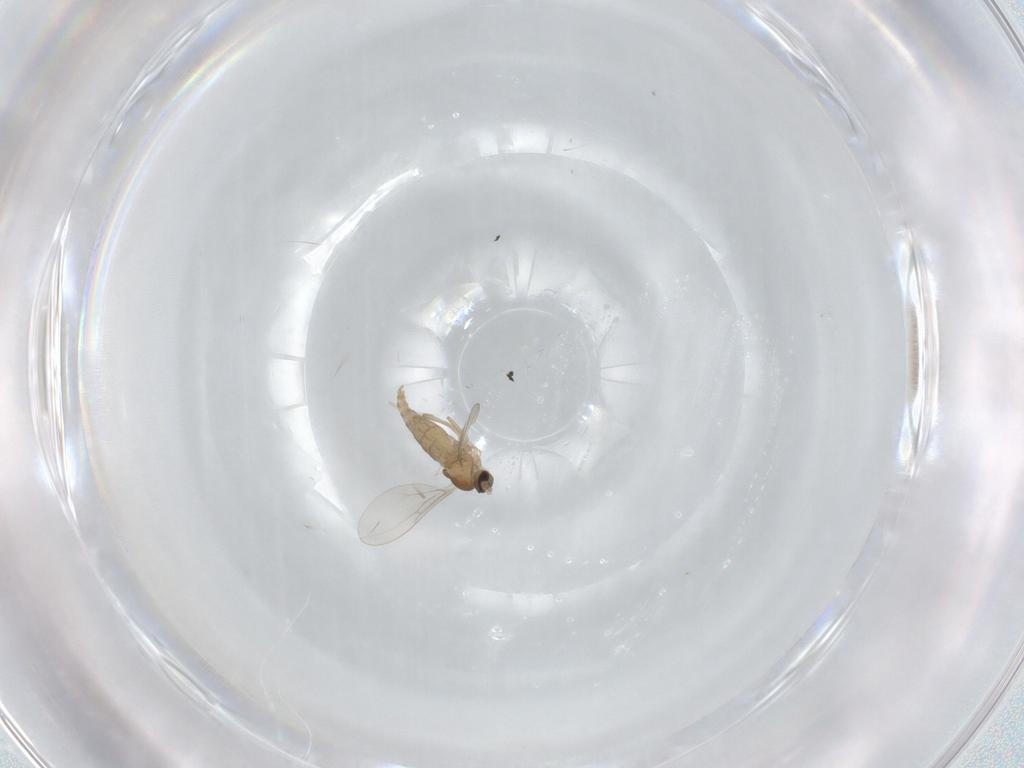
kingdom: Animalia
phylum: Arthropoda
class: Insecta
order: Diptera
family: Cecidomyiidae
